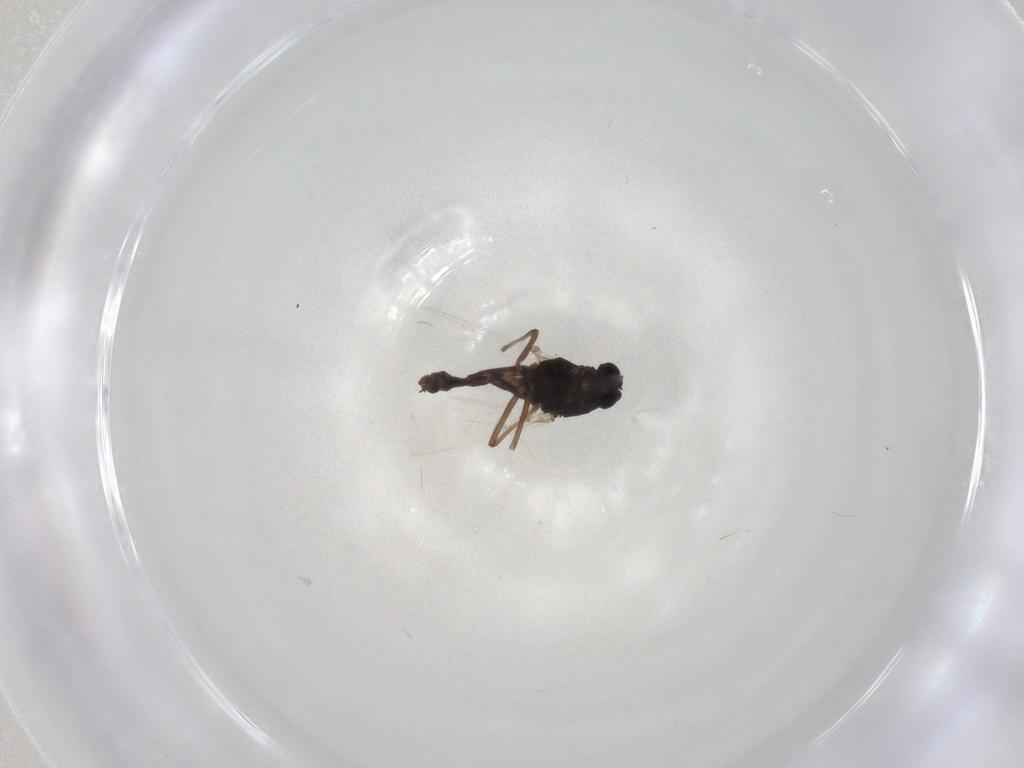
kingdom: Animalia
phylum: Arthropoda
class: Insecta
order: Diptera
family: Chironomidae
